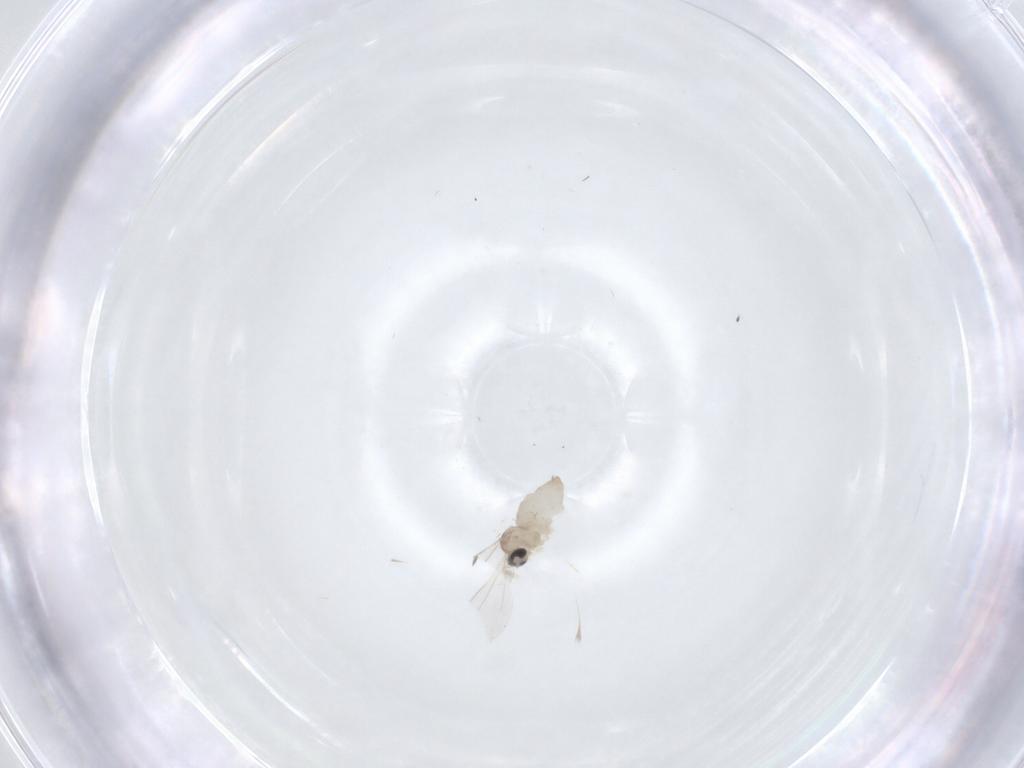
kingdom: Animalia
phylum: Arthropoda
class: Insecta
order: Diptera
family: Cecidomyiidae
